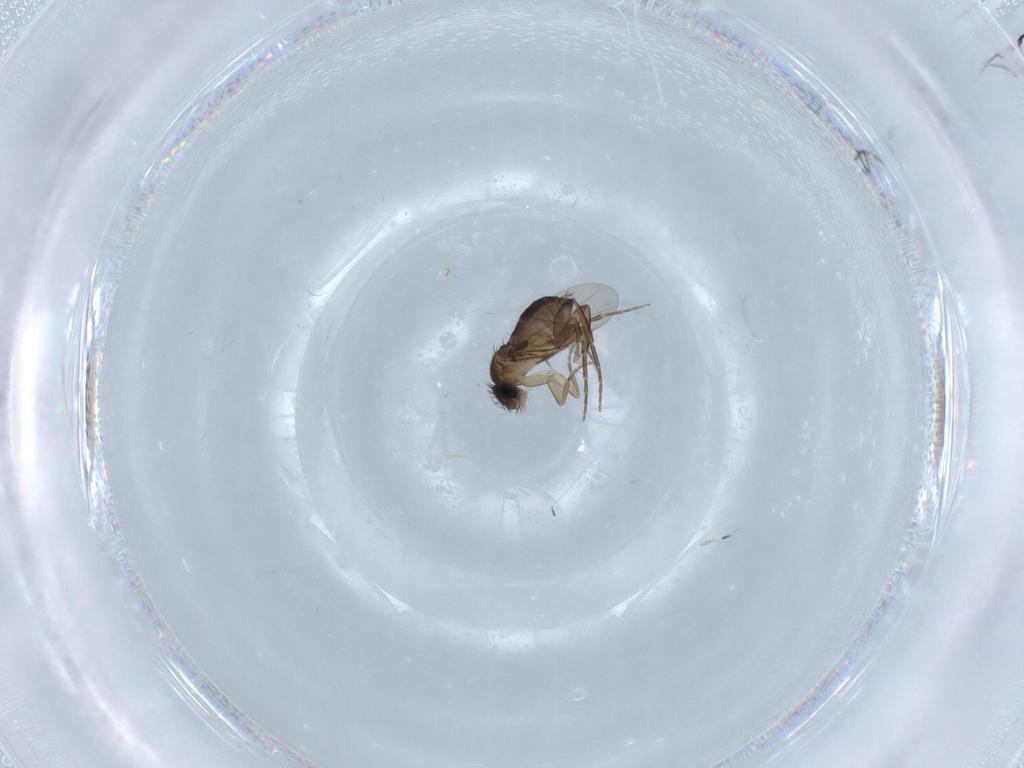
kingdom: Animalia
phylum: Arthropoda
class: Insecta
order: Diptera
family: Phoridae
